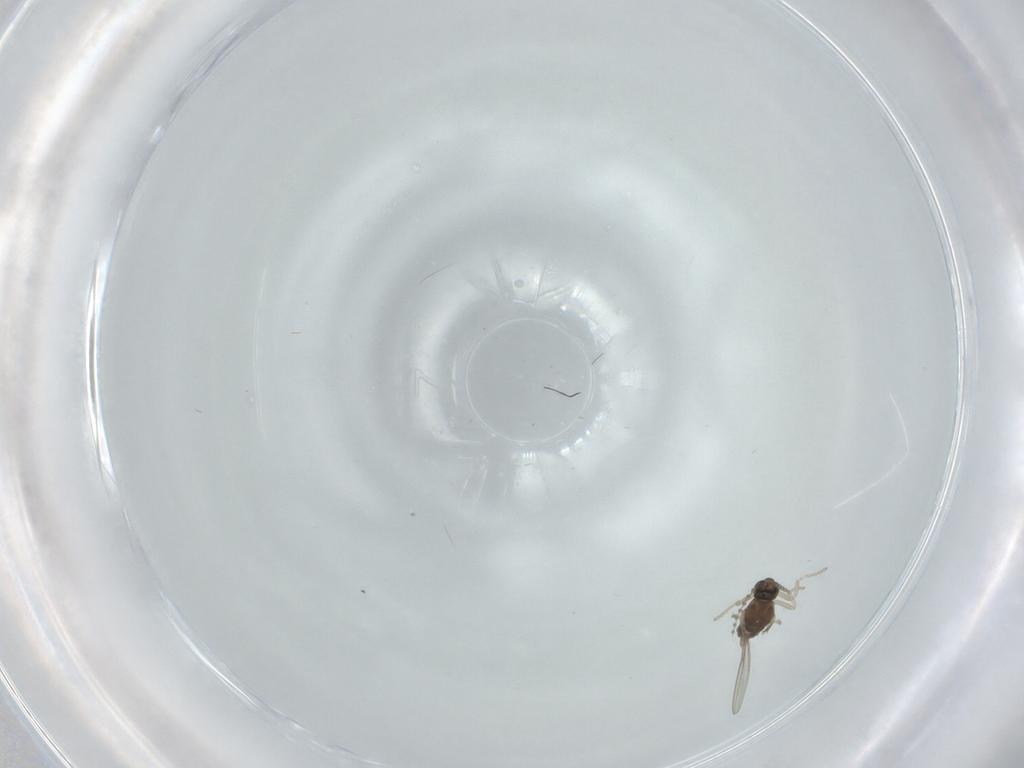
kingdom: Animalia
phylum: Arthropoda
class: Insecta
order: Diptera
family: Cecidomyiidae
